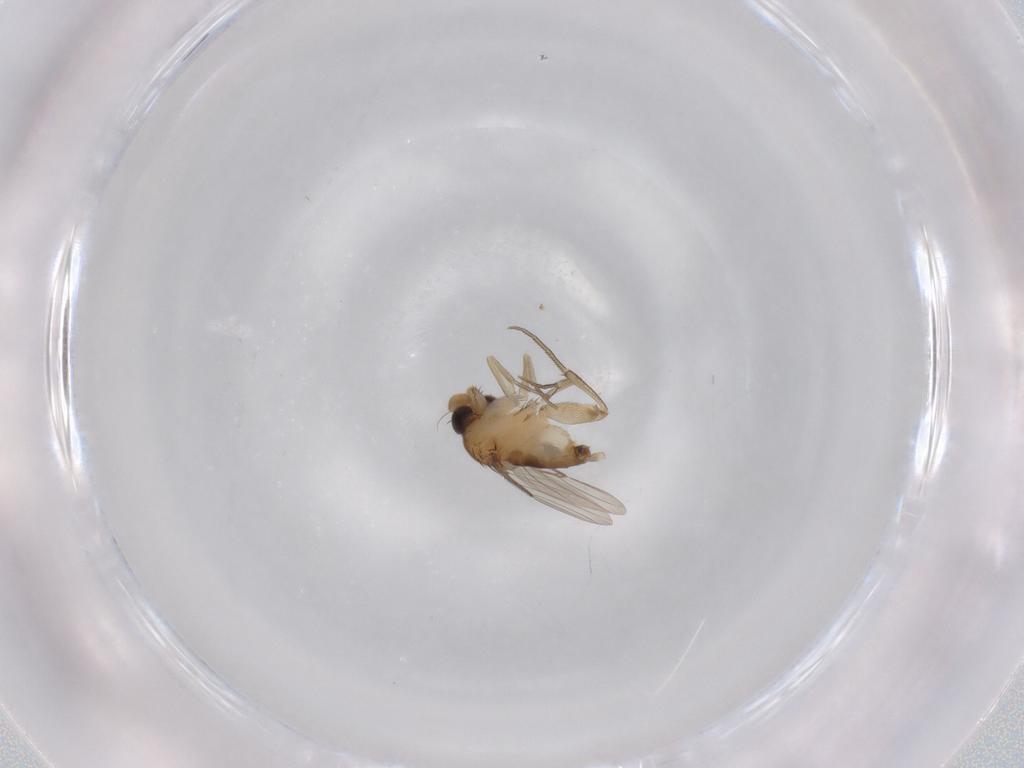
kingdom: Animalia
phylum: Arthropoda
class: Insecta
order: Diptera
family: Phoridae
